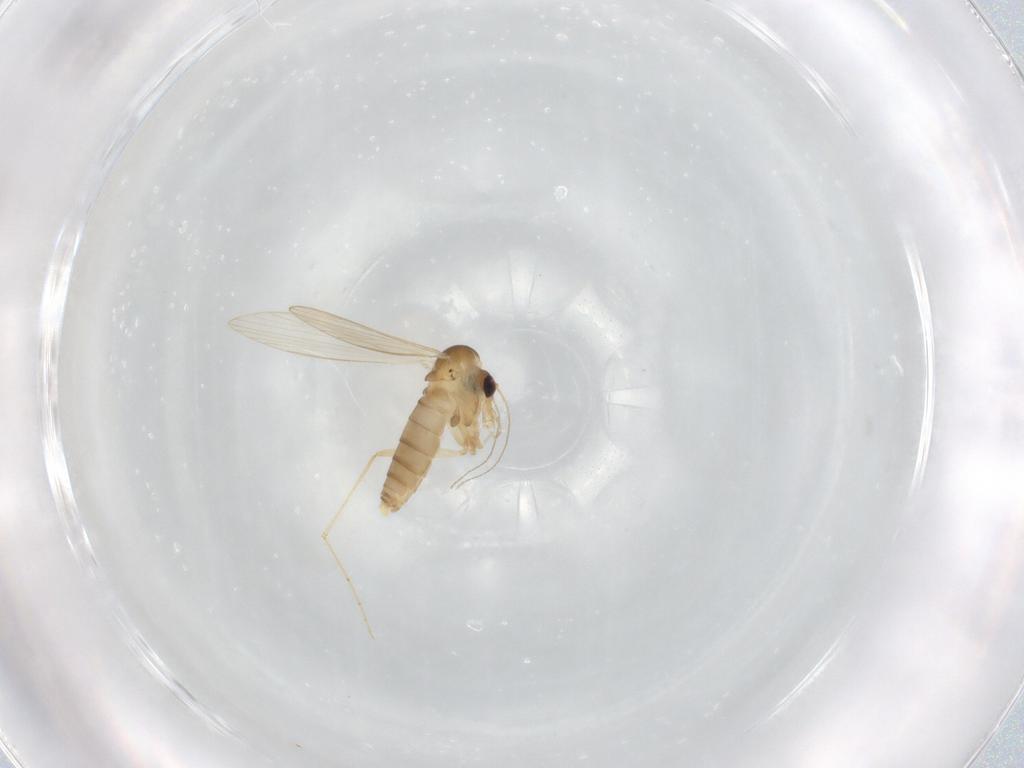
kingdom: Animalia
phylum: Arthropoda
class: Insecta
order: Diptera
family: Psychodidae
